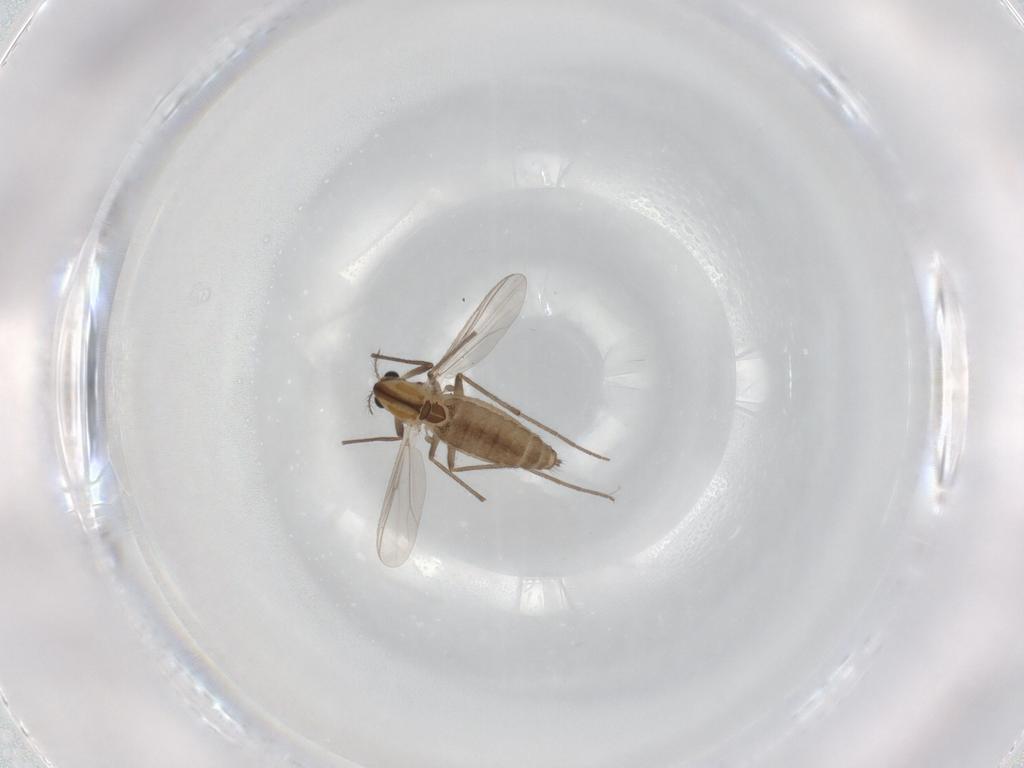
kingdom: Animalia
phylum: Arthropoda
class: Insecta
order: Diptera
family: Chironomidae
